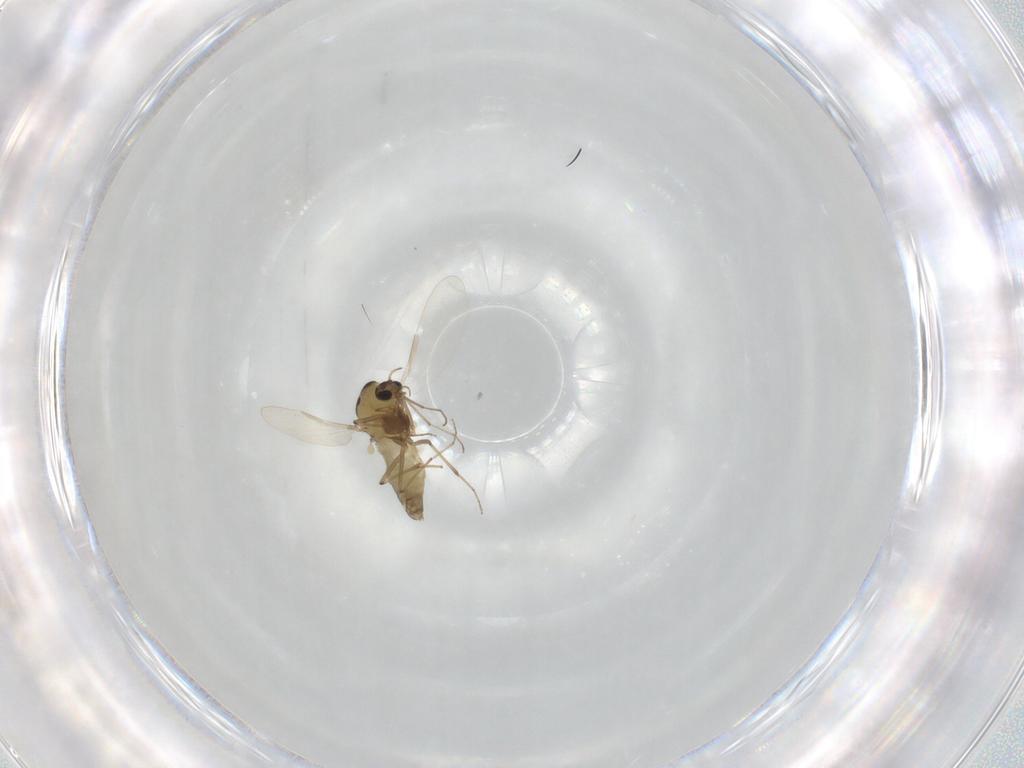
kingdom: Animalia
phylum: Arthropoda
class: Insecta
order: Diptera
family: Chironomidae
